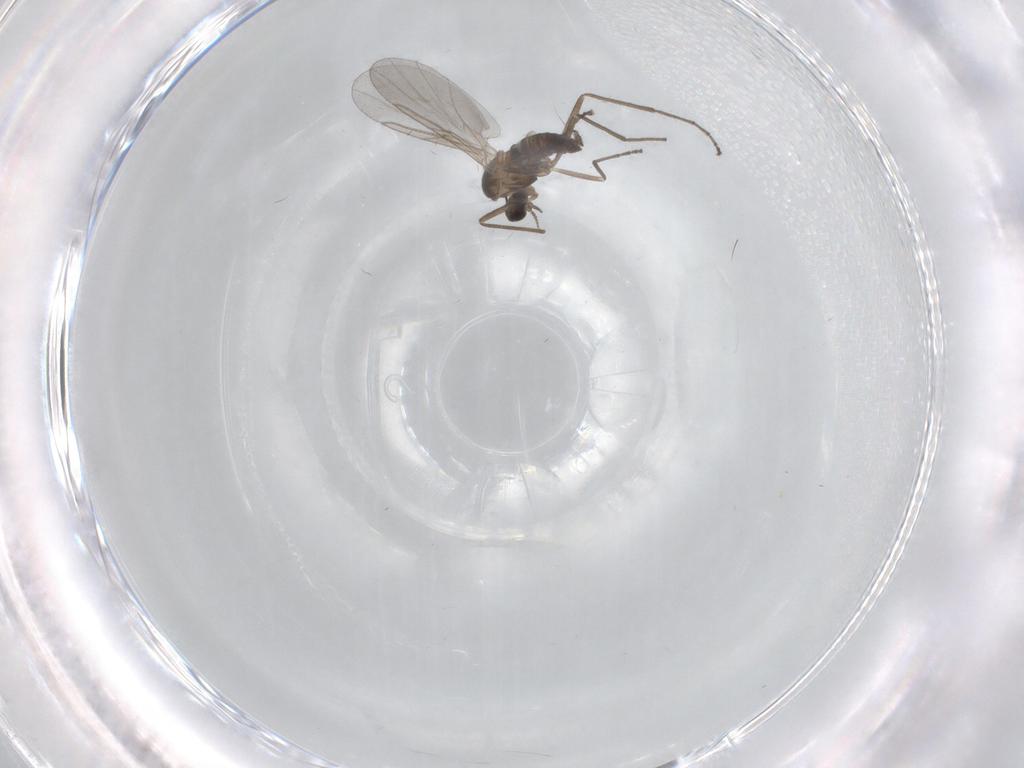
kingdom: Animalia
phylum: Arthropoda
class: Insecta
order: Diptera
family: Cecidomyiidae
